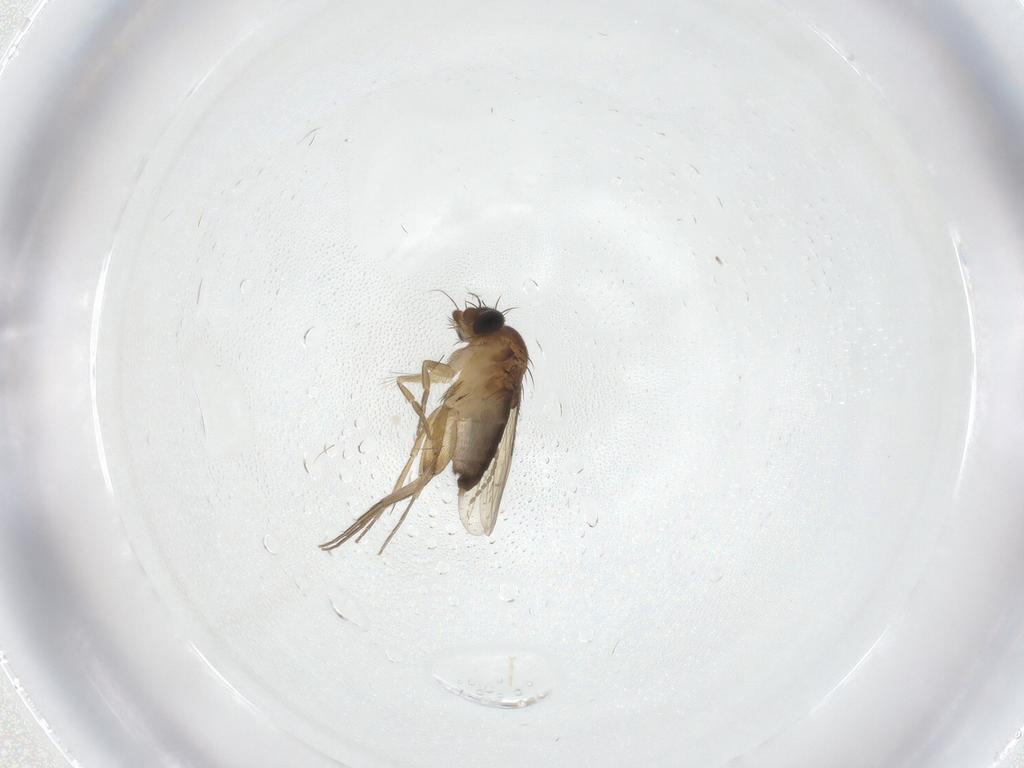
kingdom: Animalia
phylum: Arthropoda
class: Insecta
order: Diptera
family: Phoridae
